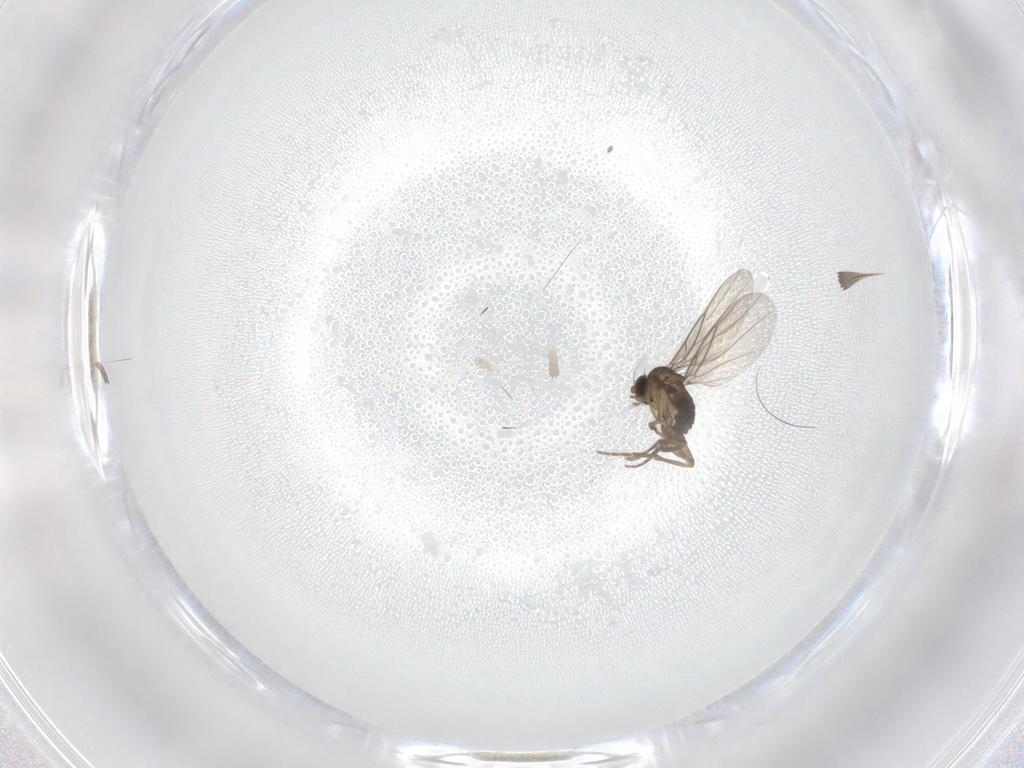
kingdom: Animalia
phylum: Arthropoda
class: Insecta
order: Diptera
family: Phoridae
